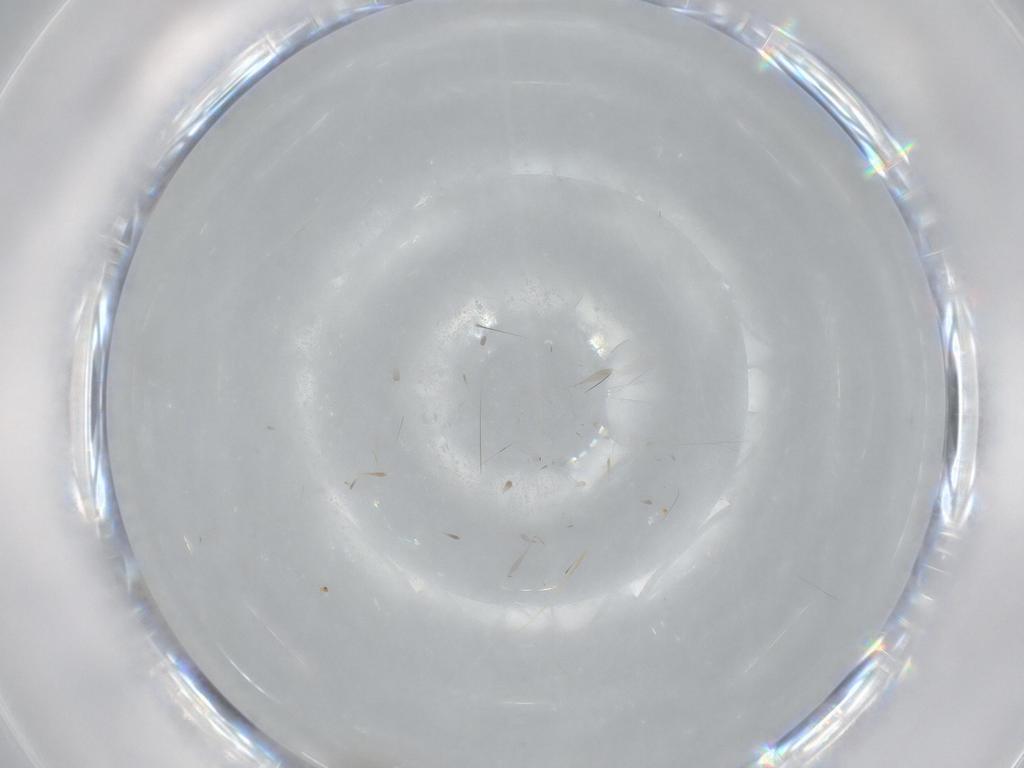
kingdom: Animalia
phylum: Arthropoda
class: Insecta
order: Diptera
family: Psychodidae
